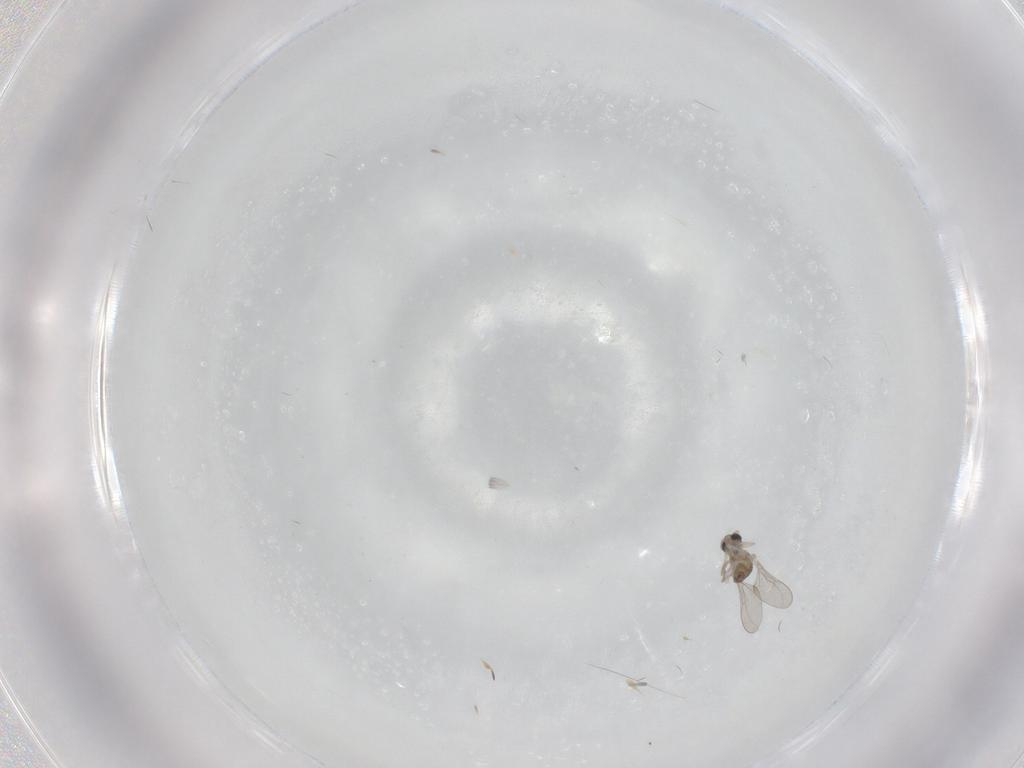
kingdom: Animalia
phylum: Arthropoda
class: Insecta
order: Diptera
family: Cecidomyiidae
